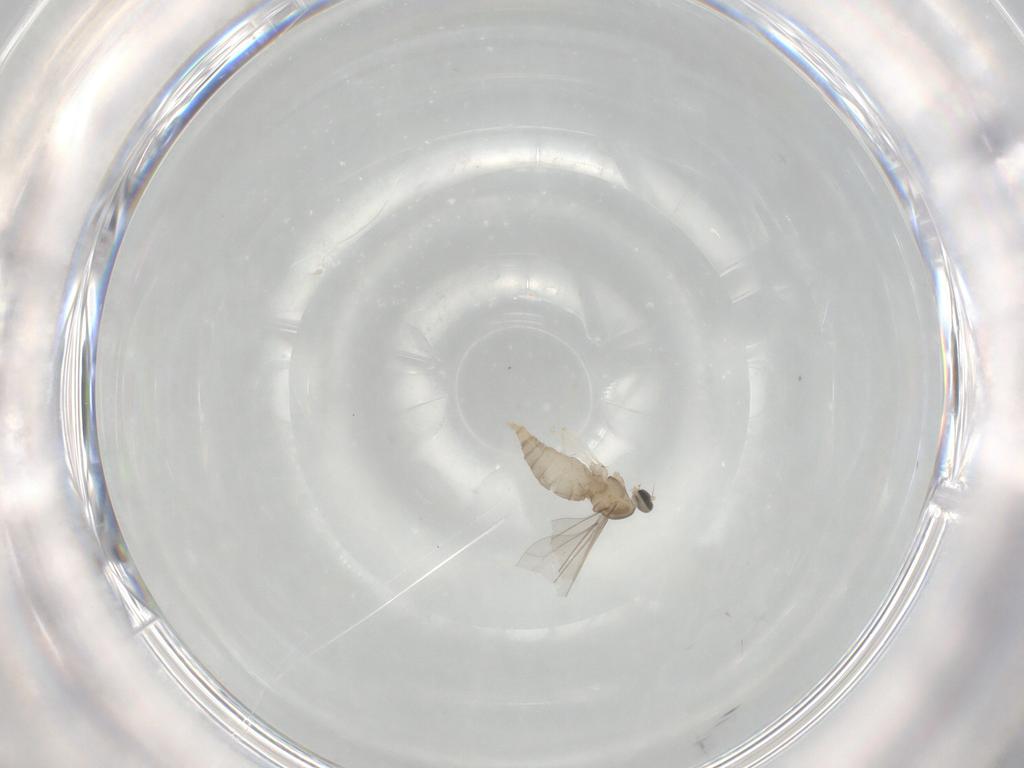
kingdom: Animalia
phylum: Arthropoda
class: Insecta
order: Diptera
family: Cecidomyiidae
